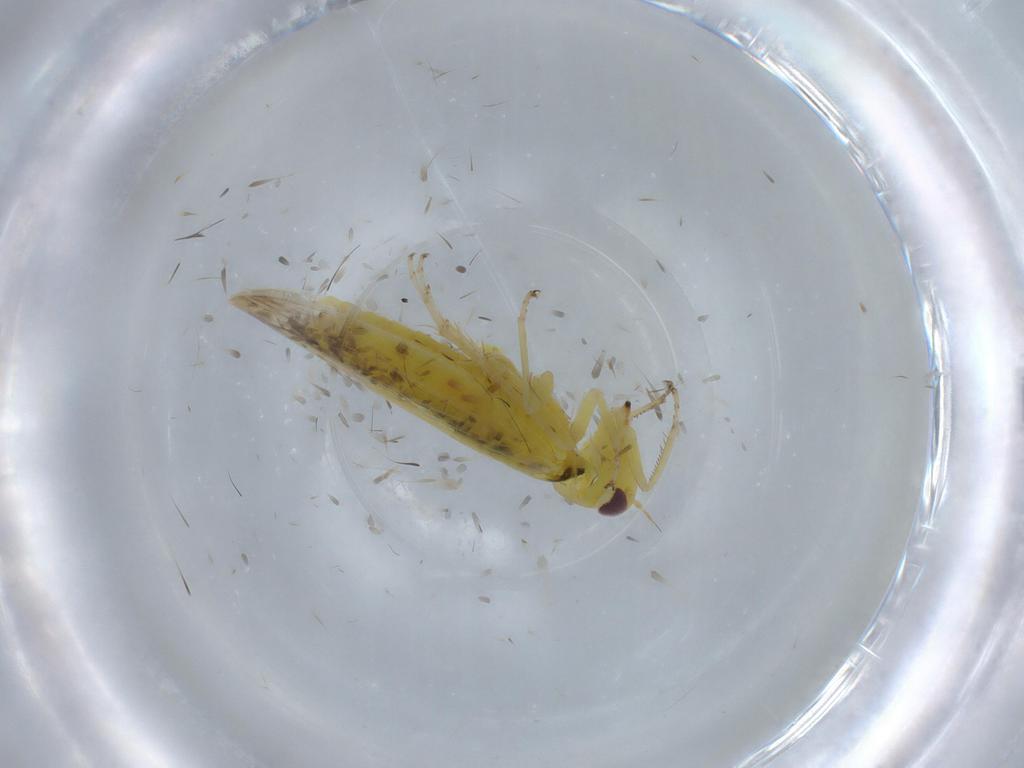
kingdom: Animalia
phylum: Arthropoda
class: Insecta
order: Hemiptera
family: Cicadellidae
